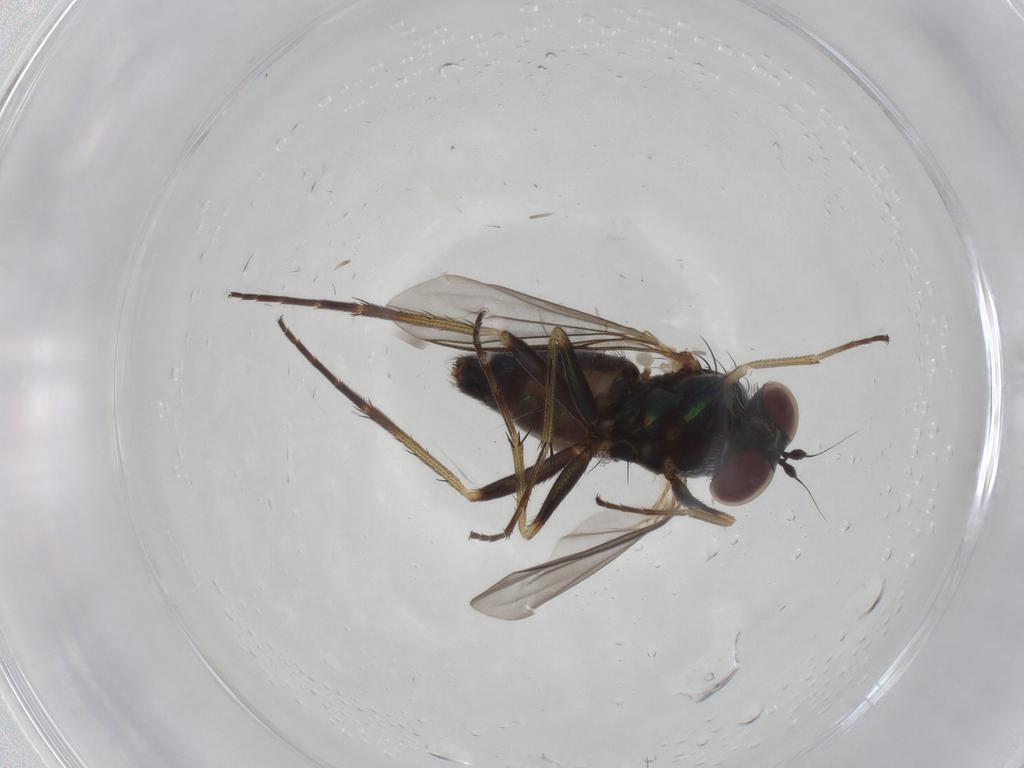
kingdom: Animalia
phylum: Arthropoda
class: Insecta
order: Diptera
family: Dolichopodidae
